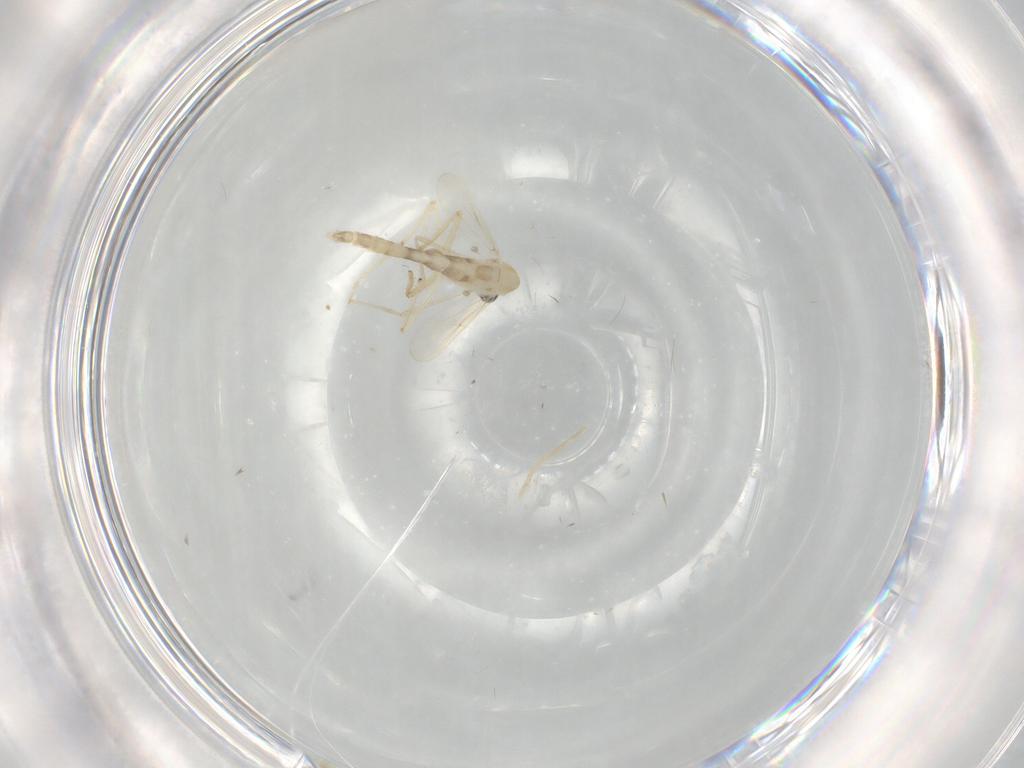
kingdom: Animalia
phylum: Arthropoda
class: Insecta
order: Diptera
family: Chironomidae
